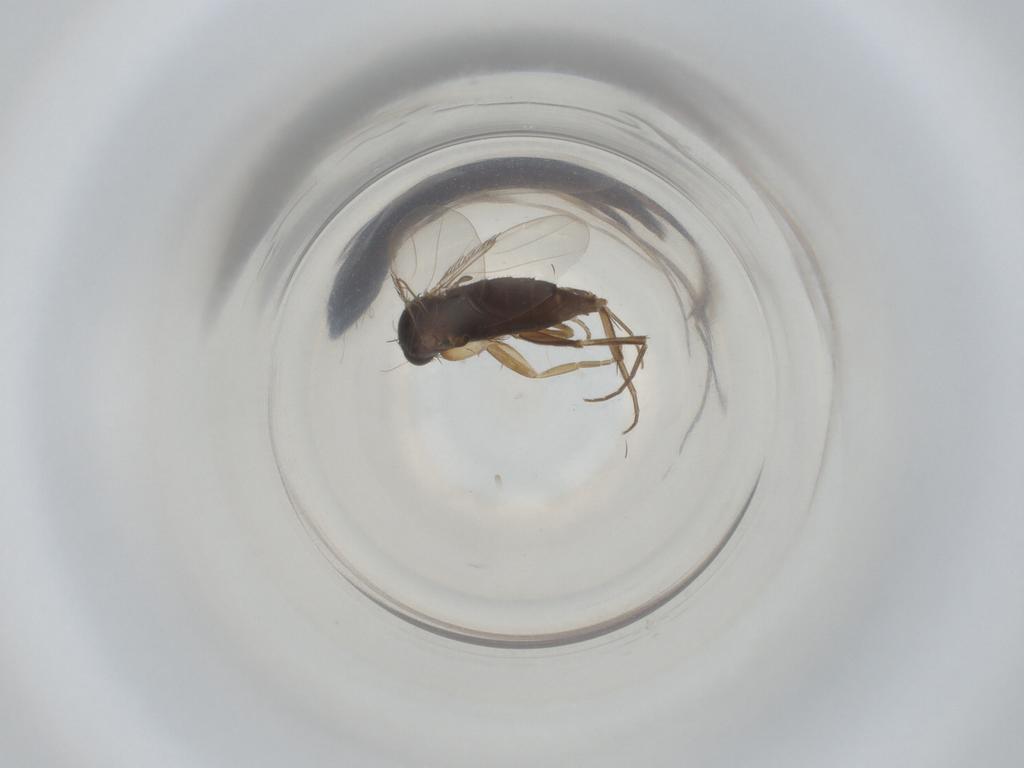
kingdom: Animalia
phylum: Arthropoda
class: Insecta
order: Diptera
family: Phoridae
